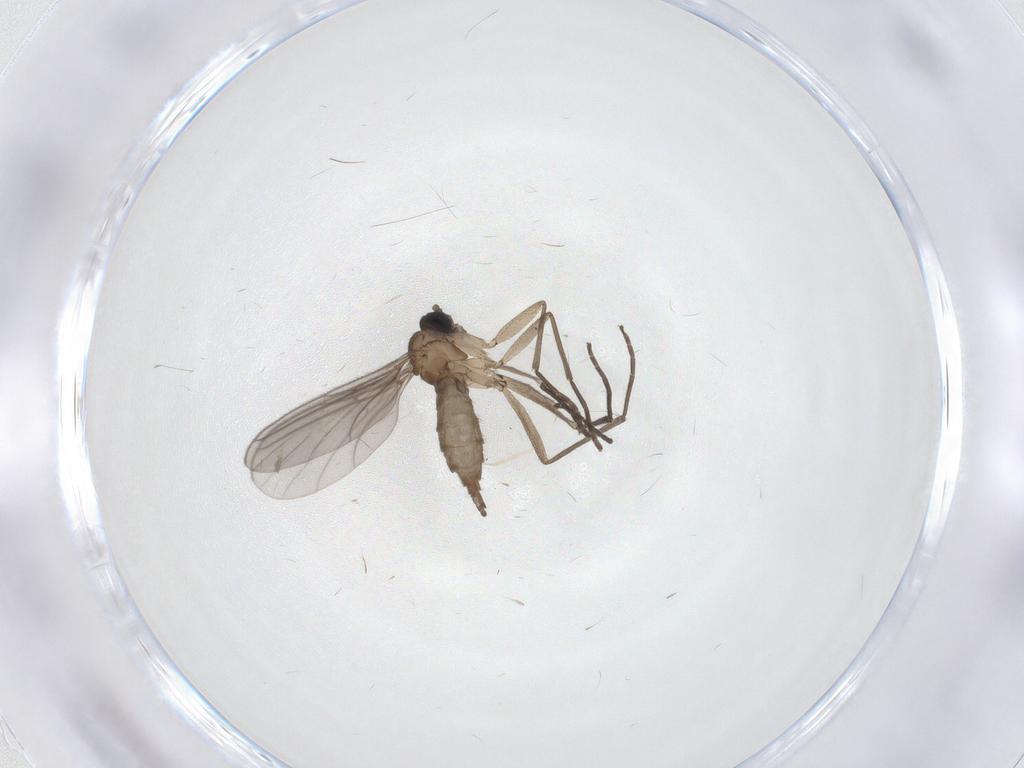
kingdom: Animalia
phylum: Arthropoda
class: Insecta
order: Diptera
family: Sciaridae
